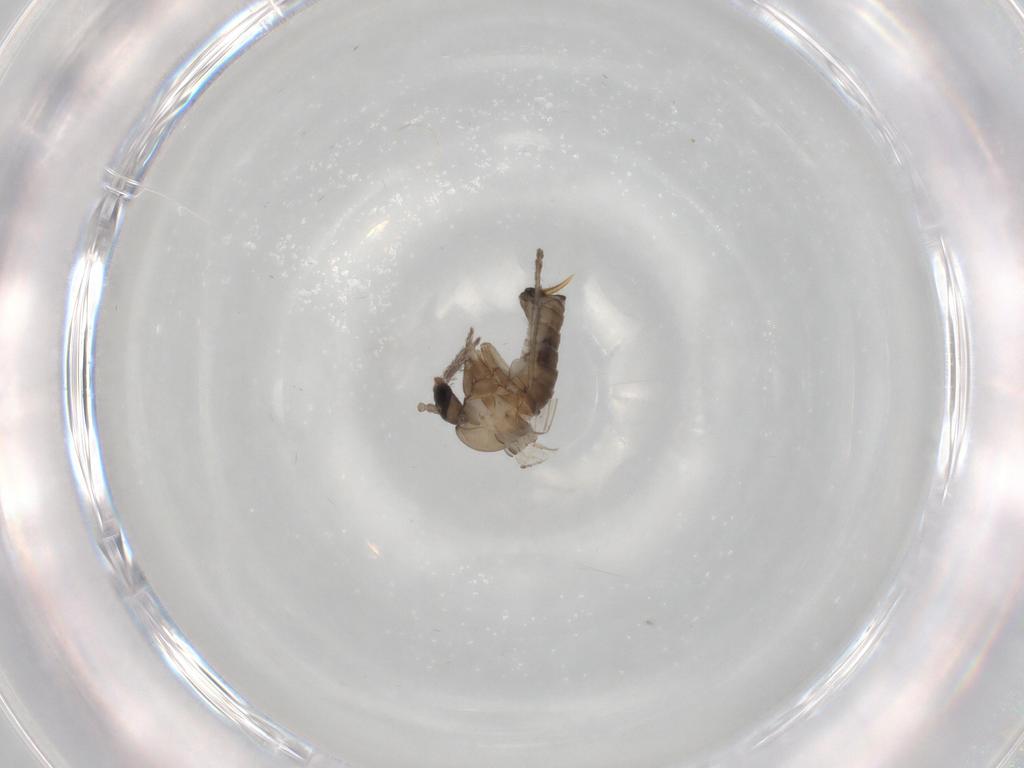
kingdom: Animalia
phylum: Arthropoda
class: Insecta
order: Diptera
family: Psychodidae
